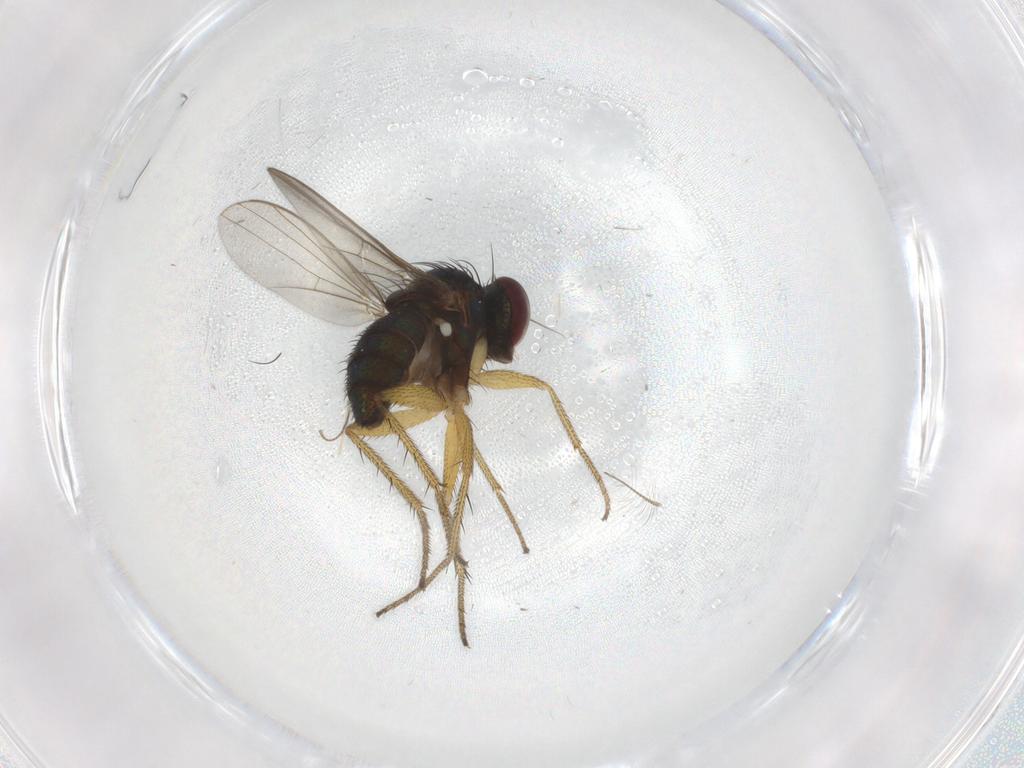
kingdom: Animalia
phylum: Arthropoda
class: Insecta
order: Diptera
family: Dolichopodidae
